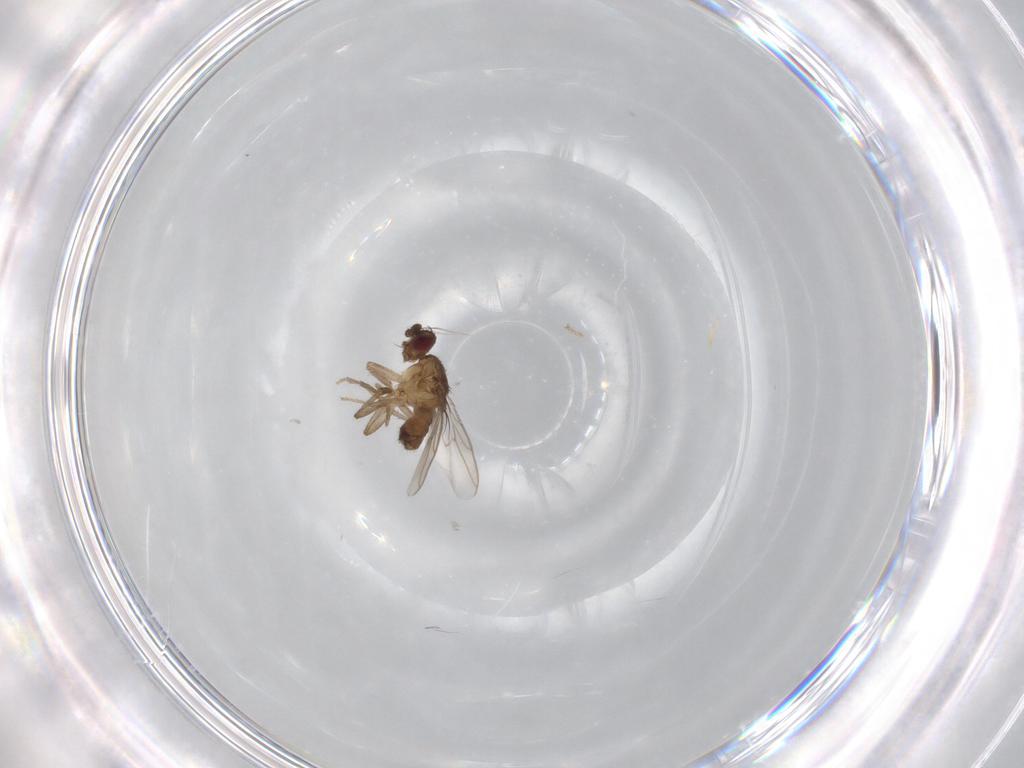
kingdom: Animalia
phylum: Arthropoda
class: Insecta
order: Diptera
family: Sphaeroceridae
